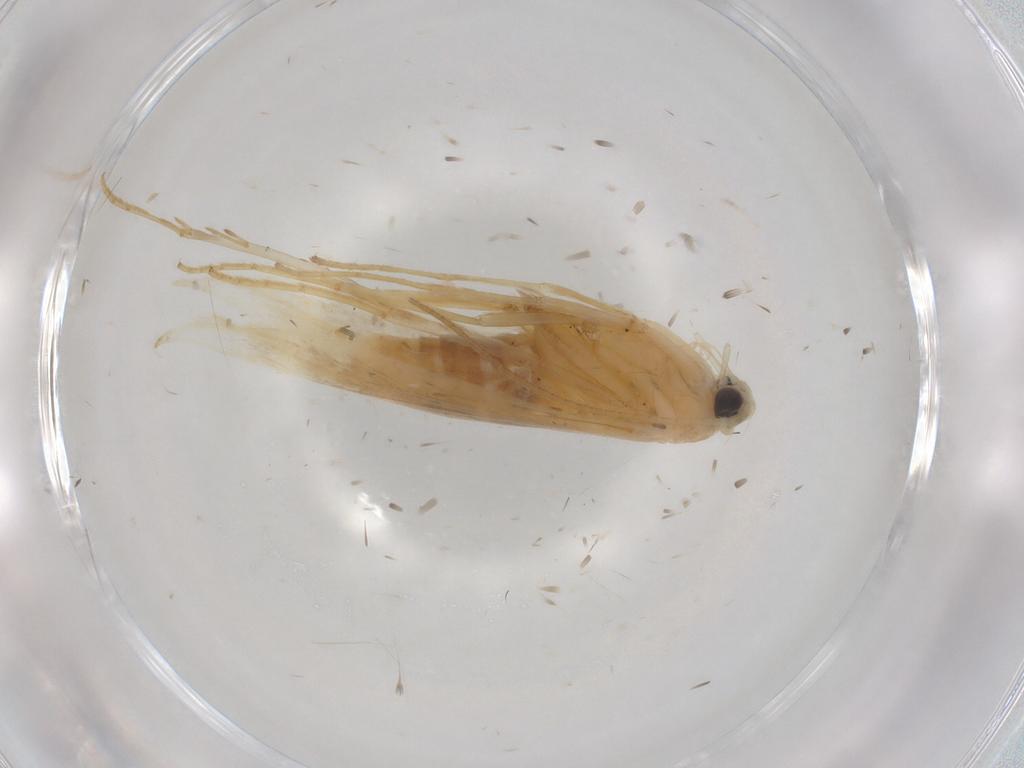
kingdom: Animalia
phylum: Arthropoda
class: Insecta
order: Lepidoptera
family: Xyloryctidae
